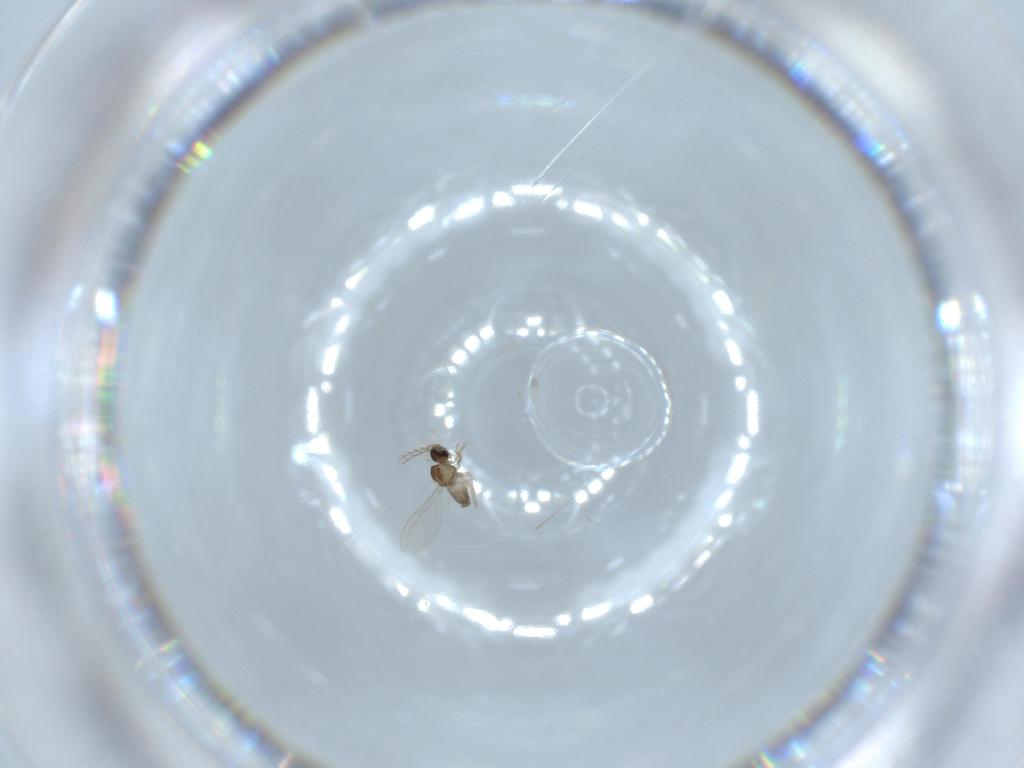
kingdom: Animalia
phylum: Arthropoda
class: Insecta
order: Diptera
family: Cecidomyiidae
